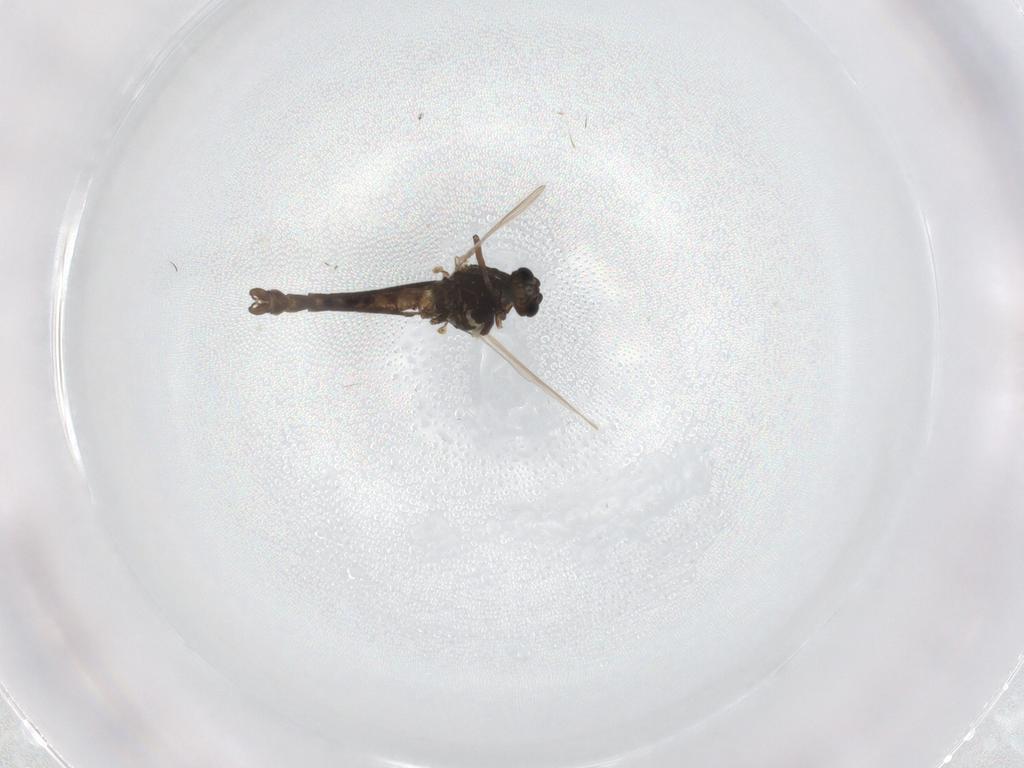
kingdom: Animalia
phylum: Arthropoda
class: Insecta
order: Diptera
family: Chironomidae
